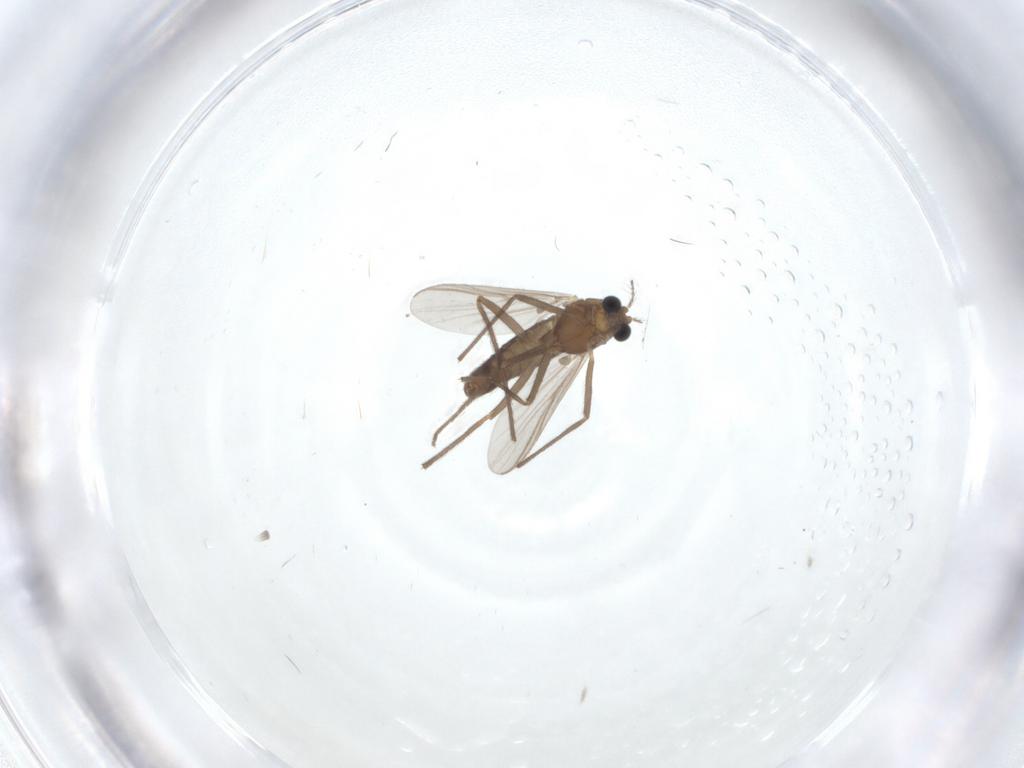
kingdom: Animalia
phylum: Arthropoda
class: Insecta
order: Diptera
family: Chironomidae
